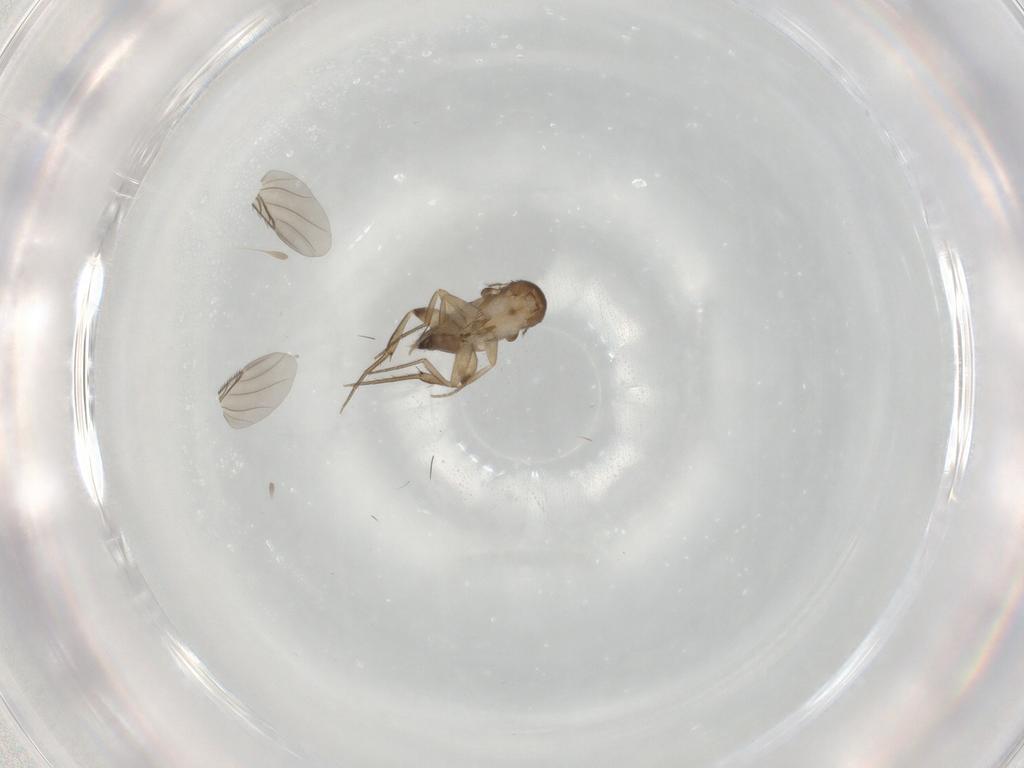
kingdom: Animalia
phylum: Arthropoda
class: Insecta
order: Diptera
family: Phoridae
